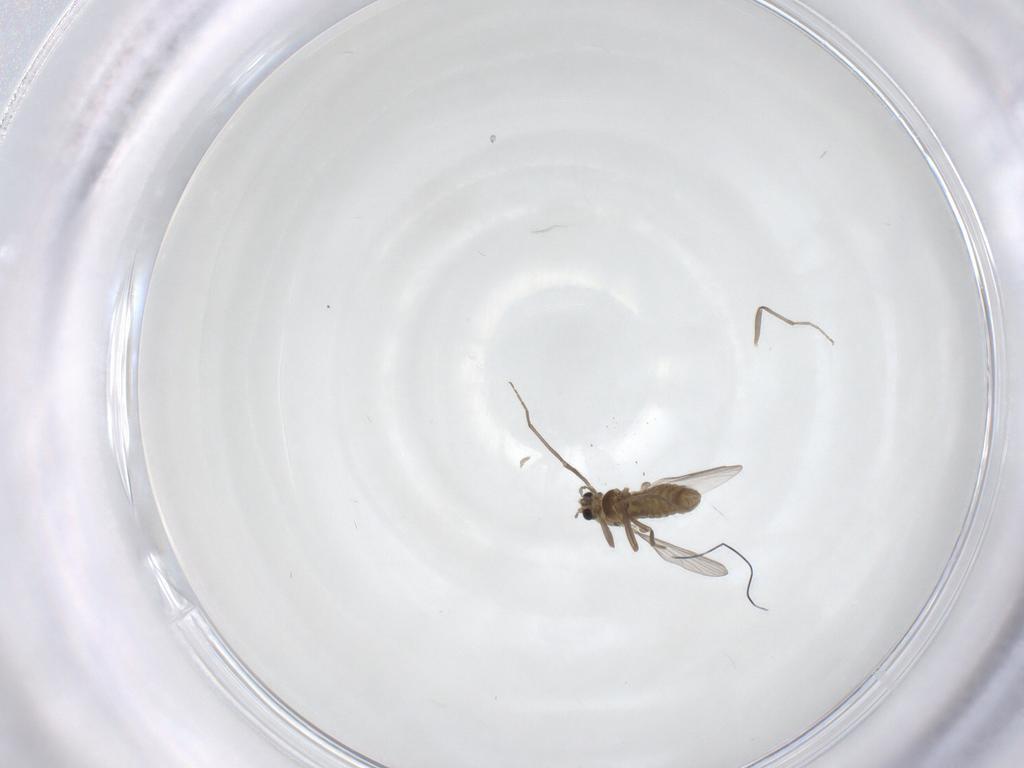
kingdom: Animalia
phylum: Arthropoda
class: Insecta
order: Diptera
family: Chironomidae
